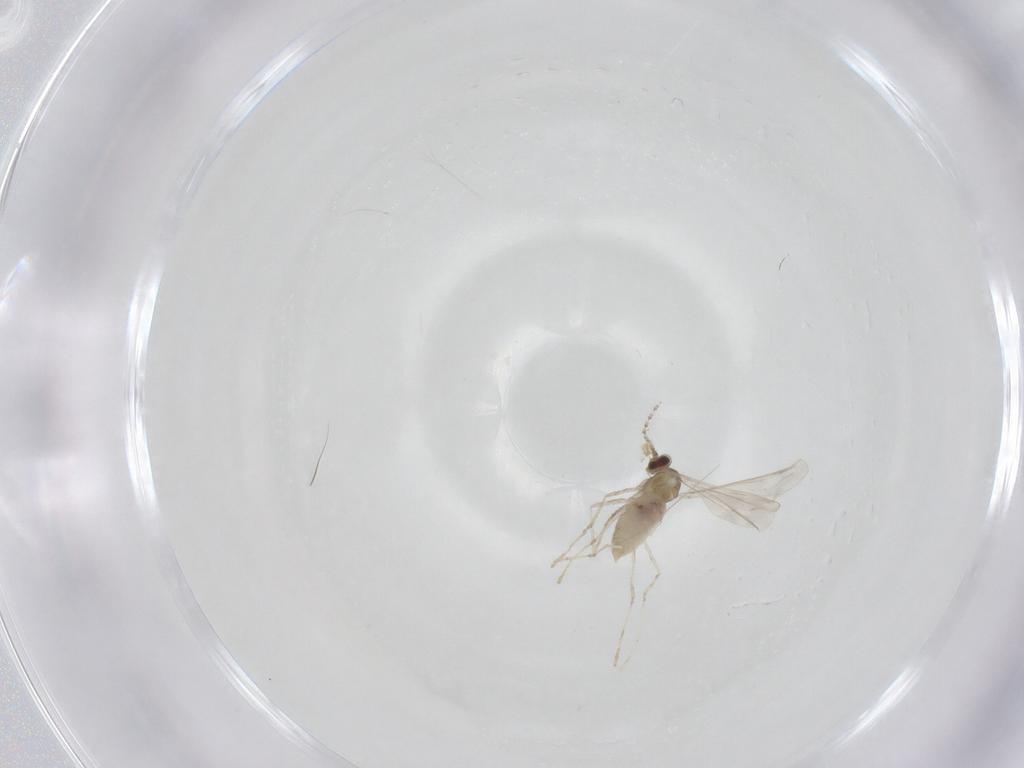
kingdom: Animalia
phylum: Arthropoda
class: Insecta
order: Diptera
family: Cecidomyiidae
